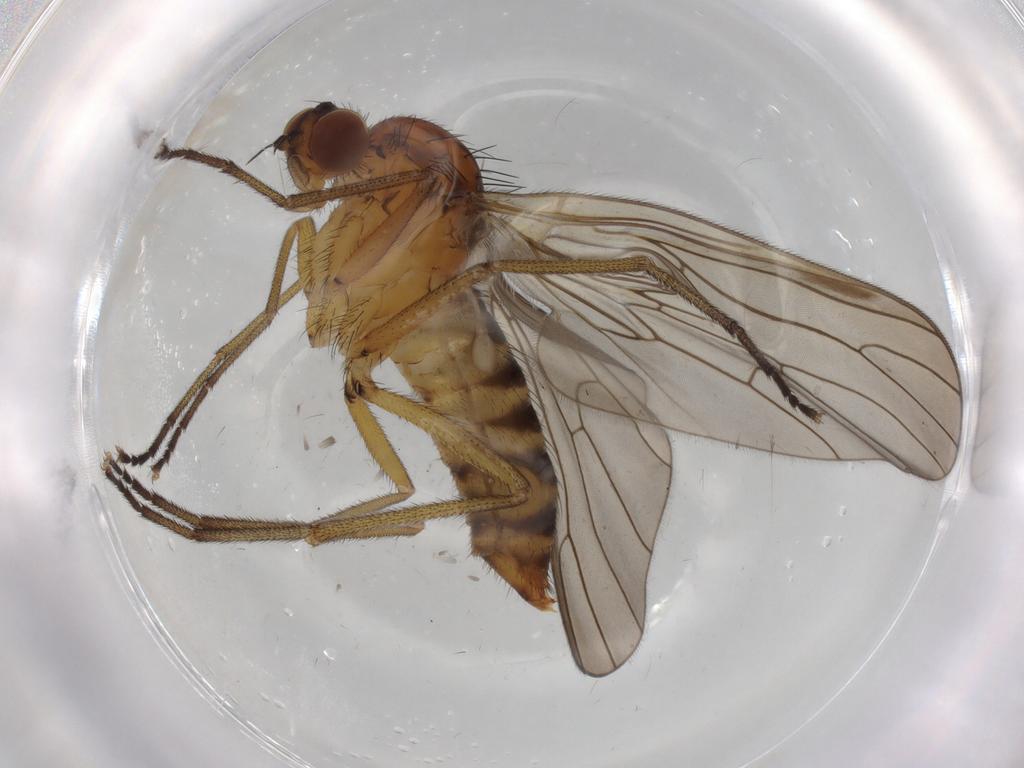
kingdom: Animalia
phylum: Arthropoda
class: Insecta
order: Diptera
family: Brachystomatidae
